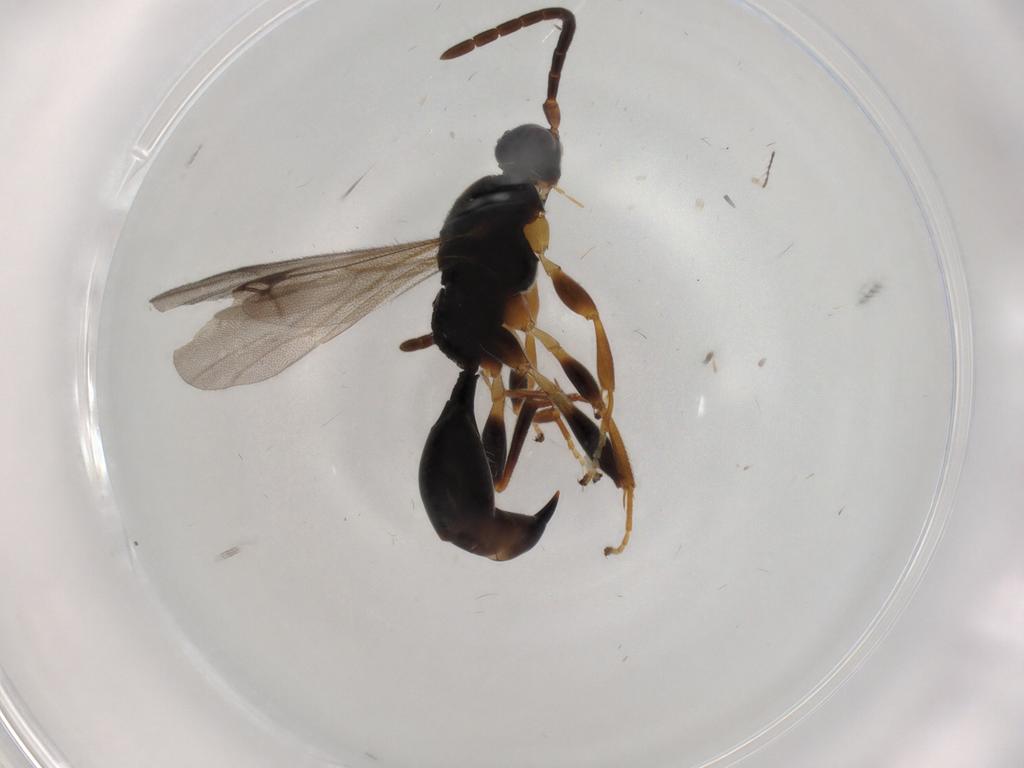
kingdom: Animalia
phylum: Arthropoda
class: Insecta
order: Hymenoptera
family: Proctotrupidae
